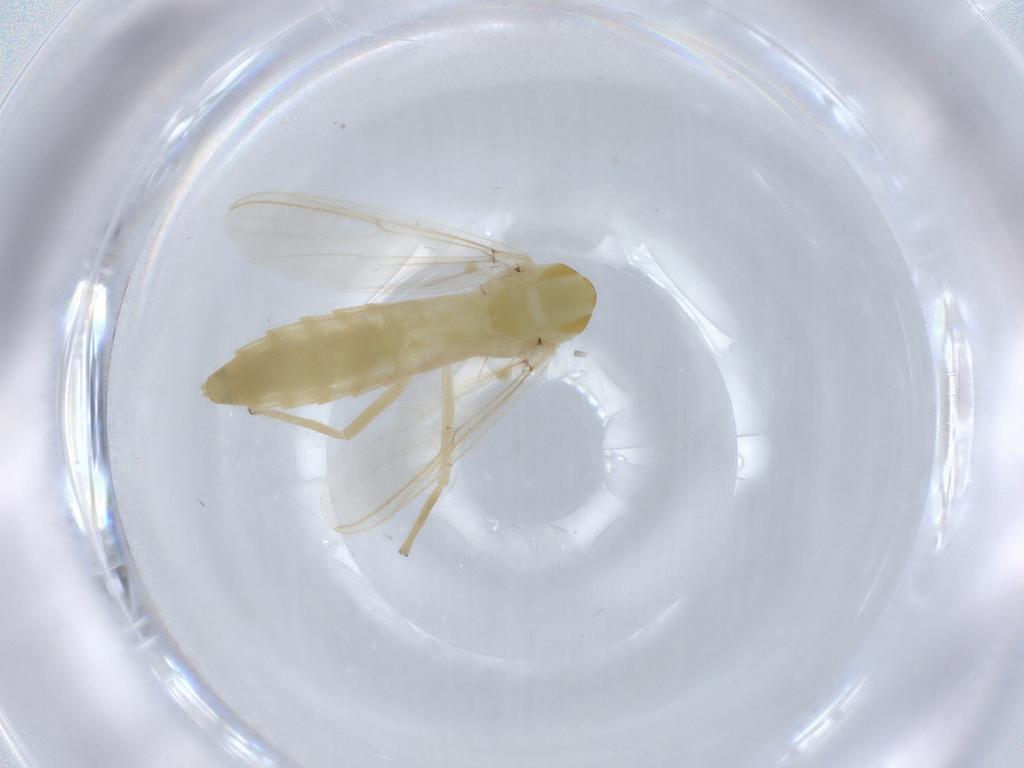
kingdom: Animalia
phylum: Arthropoda
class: Insecta
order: Diptera
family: Chironomidae
